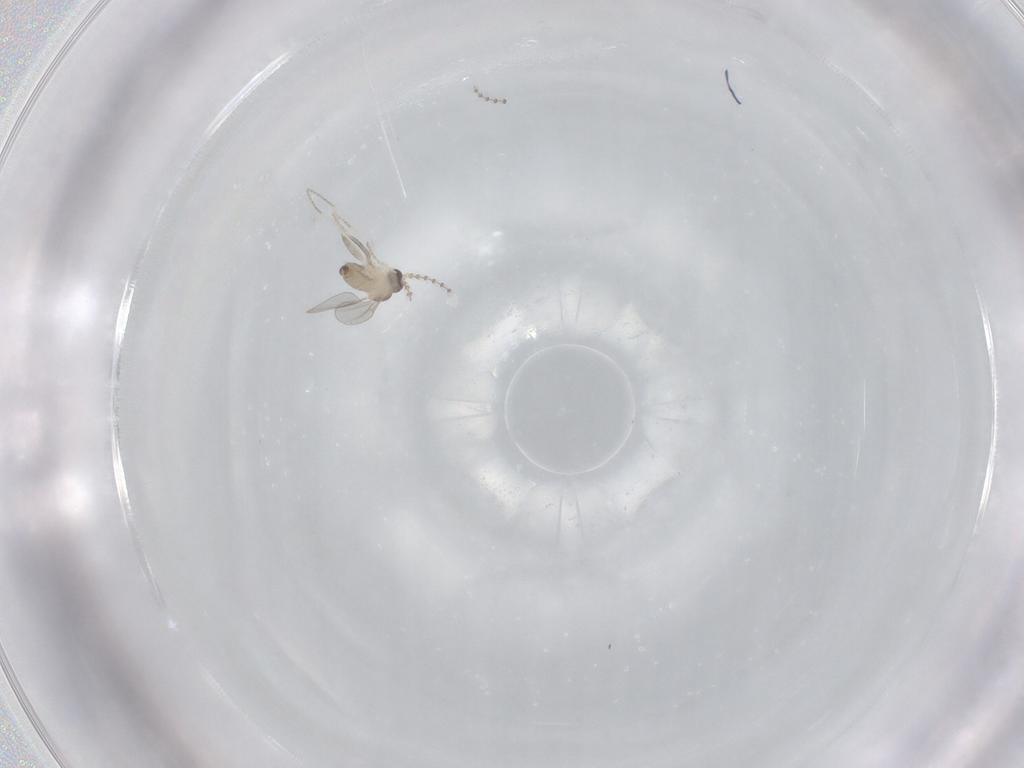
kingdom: Animalia
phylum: Arthropoda
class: Insecta
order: Diptera
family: Cecidomyiidae
